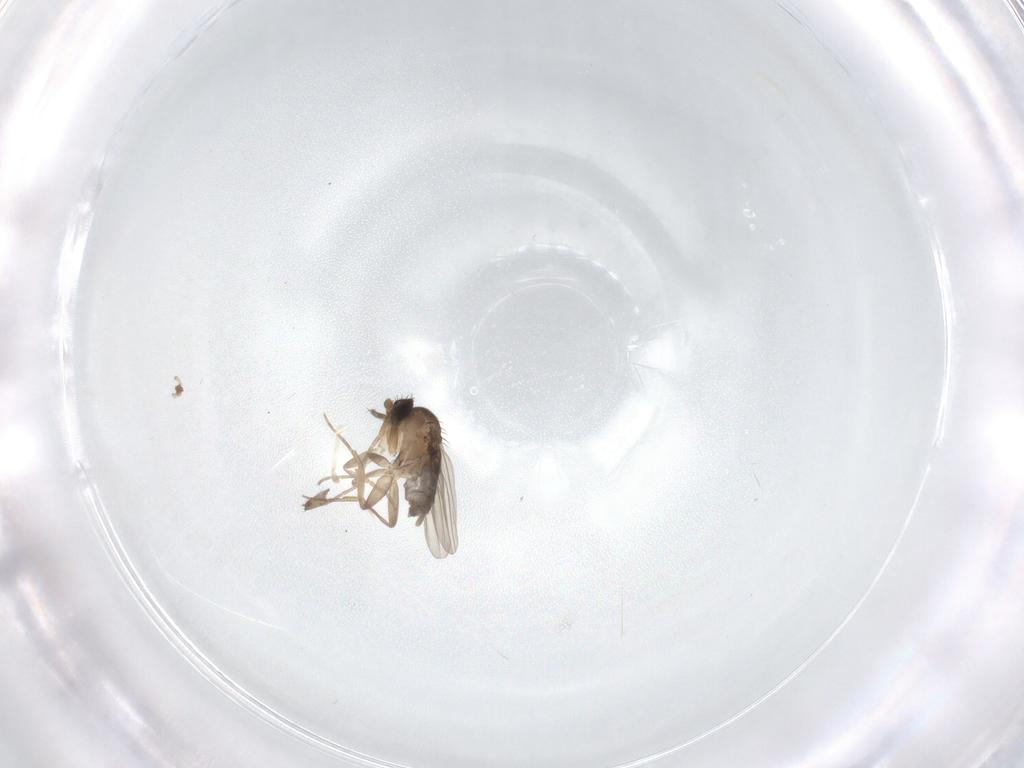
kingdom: Animalia
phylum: Arthropoda
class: Insecta
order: Diptera
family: Phoridae
